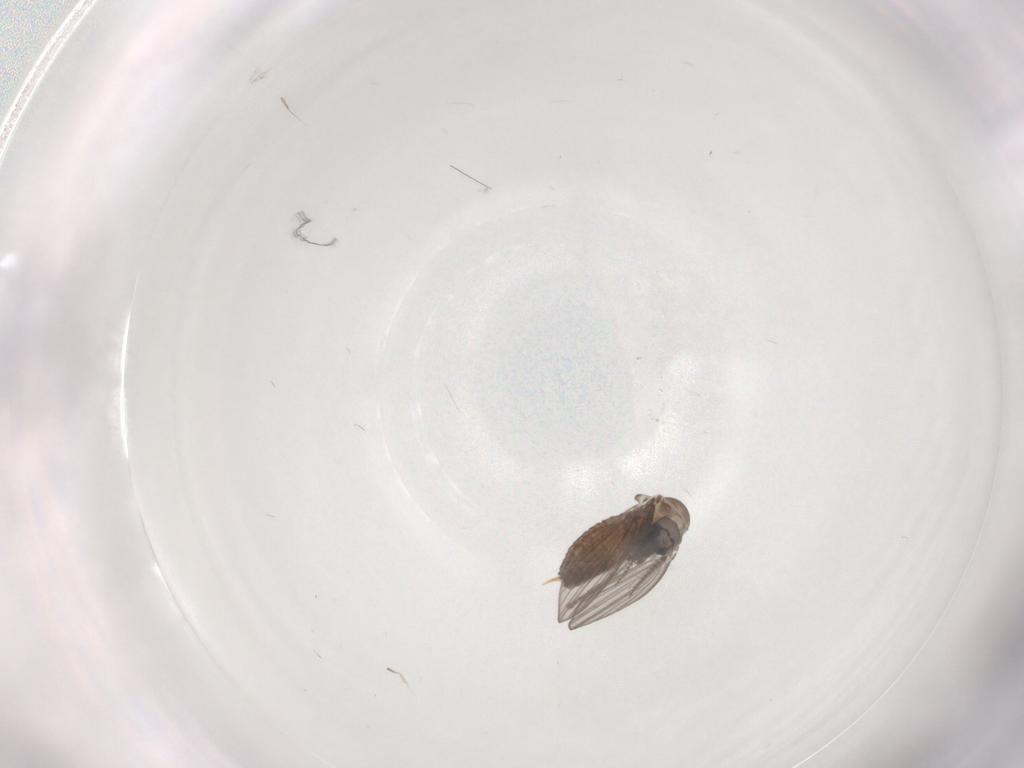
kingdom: Animalia
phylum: Arthropoda
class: Insecta
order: Diptera
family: Psychodidae
